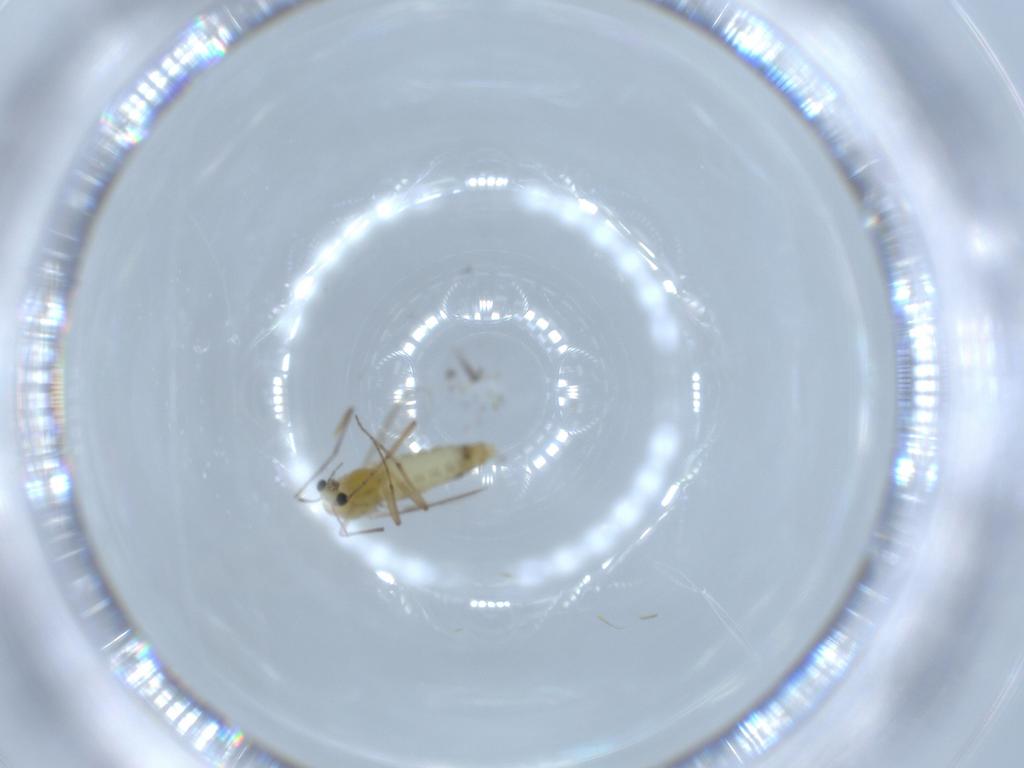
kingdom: Animalia
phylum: Arthropoda
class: Insecta
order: Diptera
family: Chironomidae
